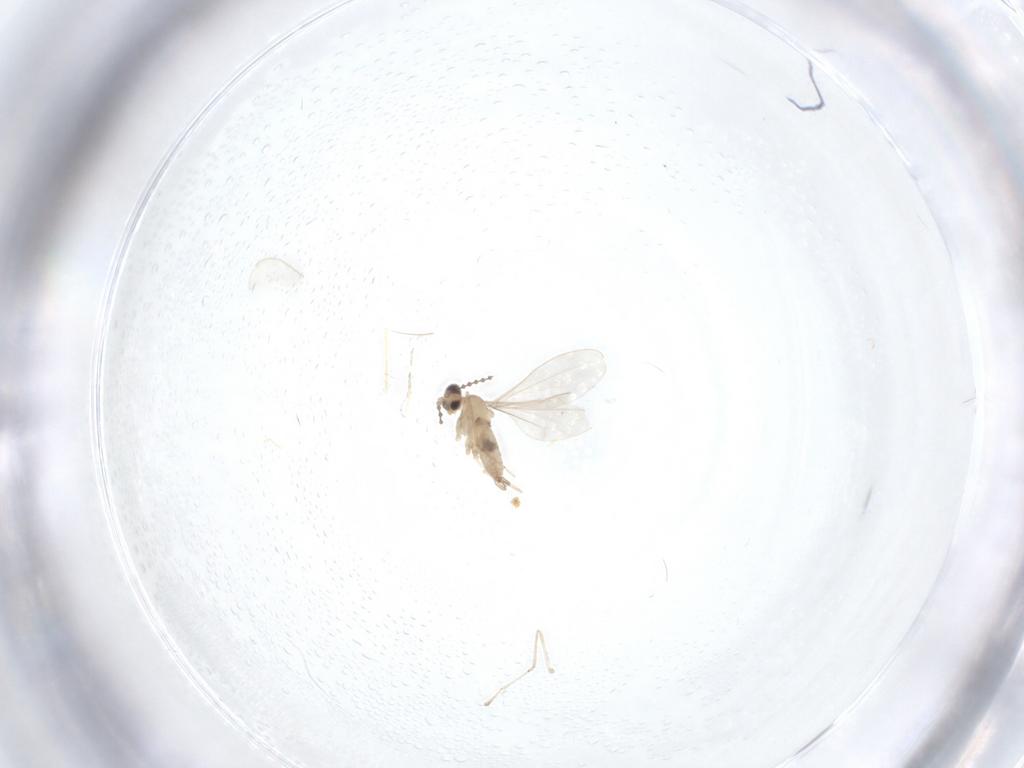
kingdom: Animalia
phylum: Arthropoda
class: Insecta
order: Diptera
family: Cecidomyiidae
